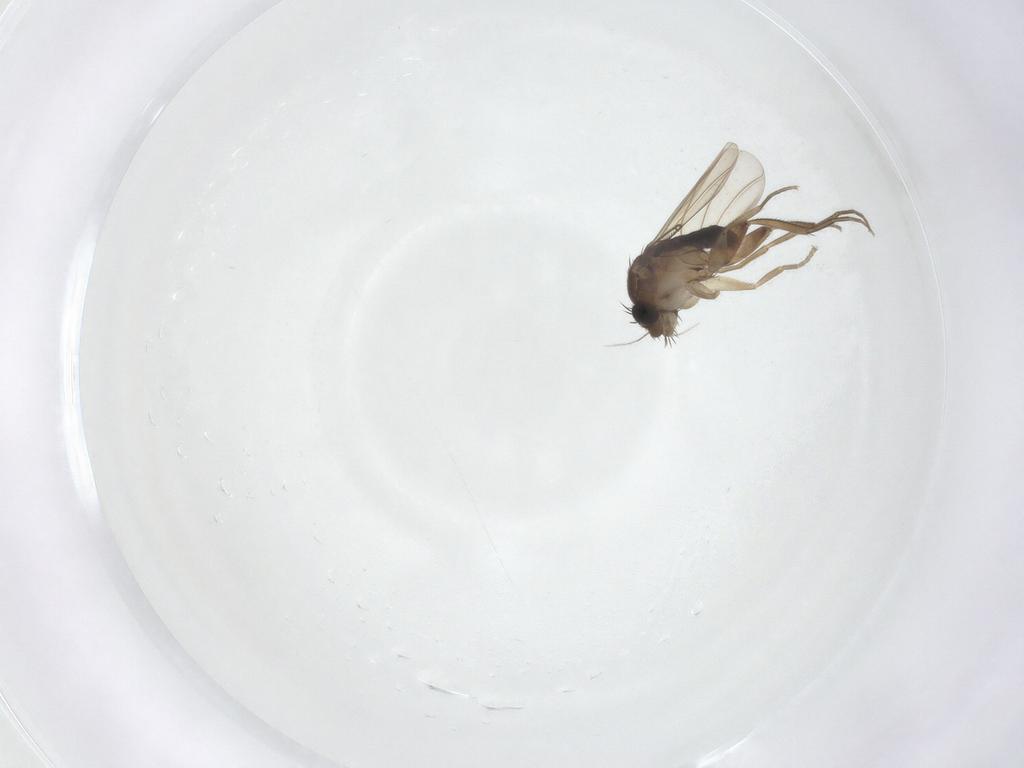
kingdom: Animalia
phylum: Arthropoda
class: Insecta
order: Diptera
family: Phoridae
